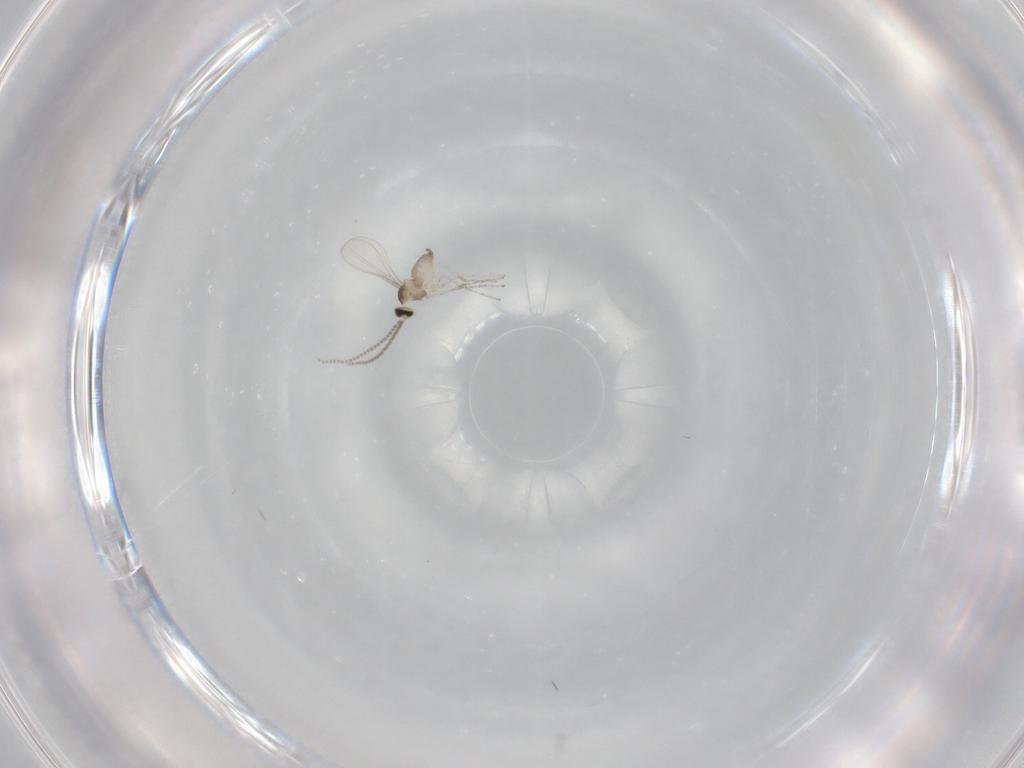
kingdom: Animalia
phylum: Arthropoda
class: Insecta
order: Diptera
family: Cecidomyiidae
